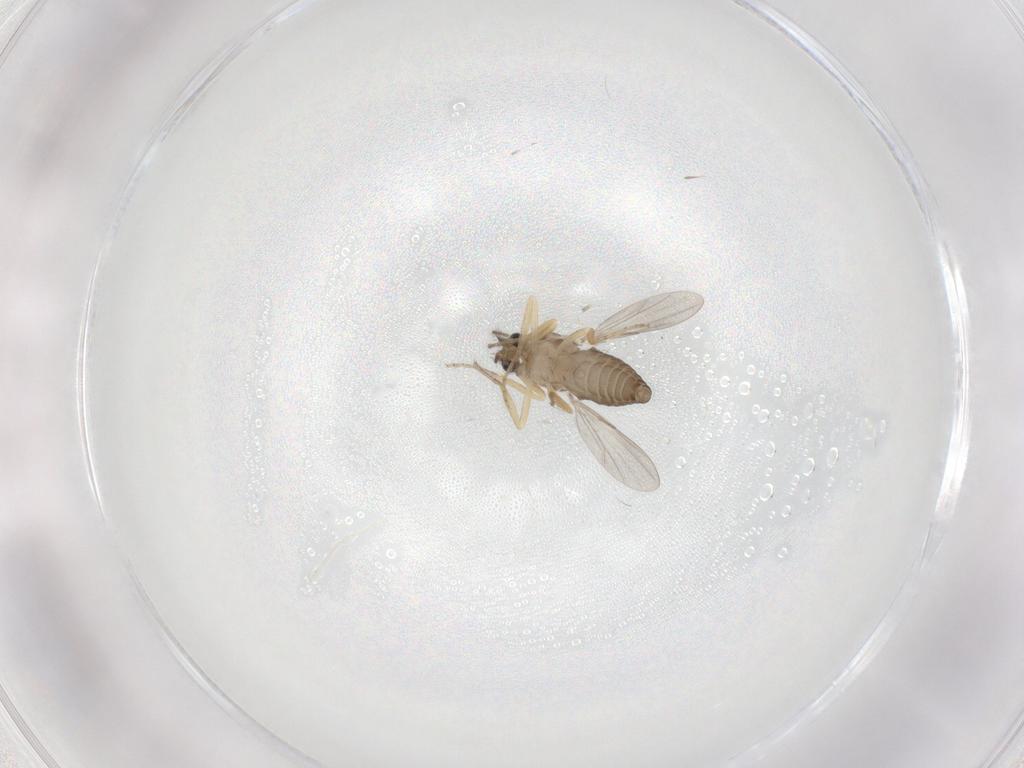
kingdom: Animalia
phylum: Arthropoda
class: Insecta
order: Diptera
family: Ceratopogonidae
